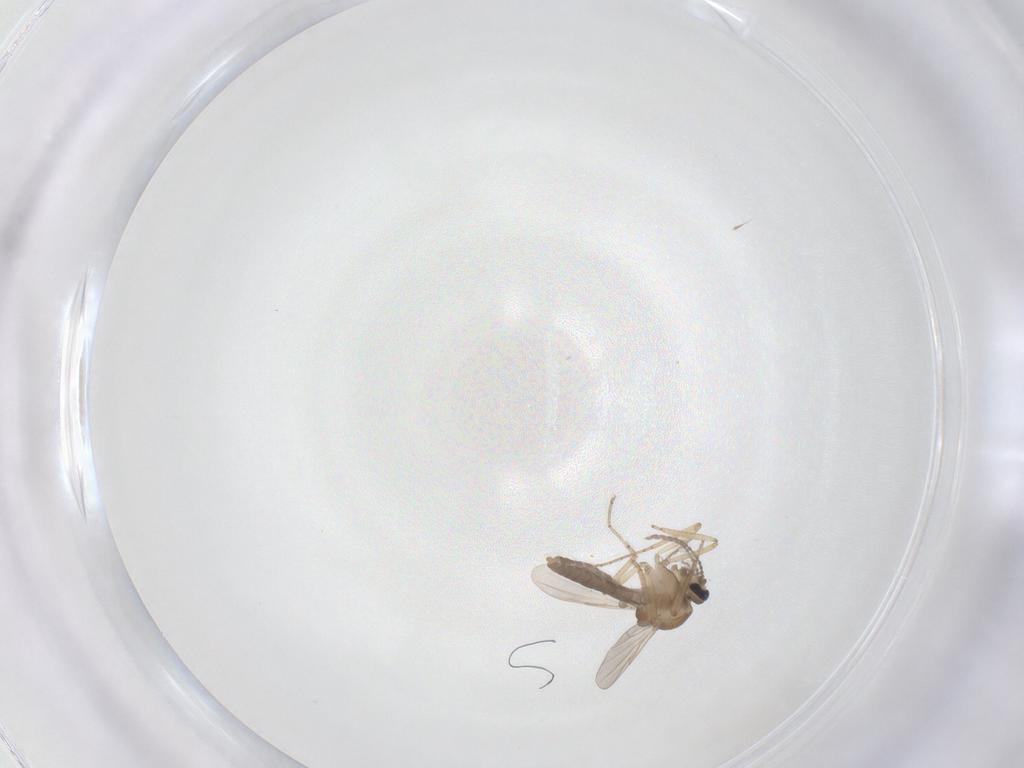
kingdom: Animalia
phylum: Arthropoda
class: Insecta
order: Diptera
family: Ceratopogonidae
